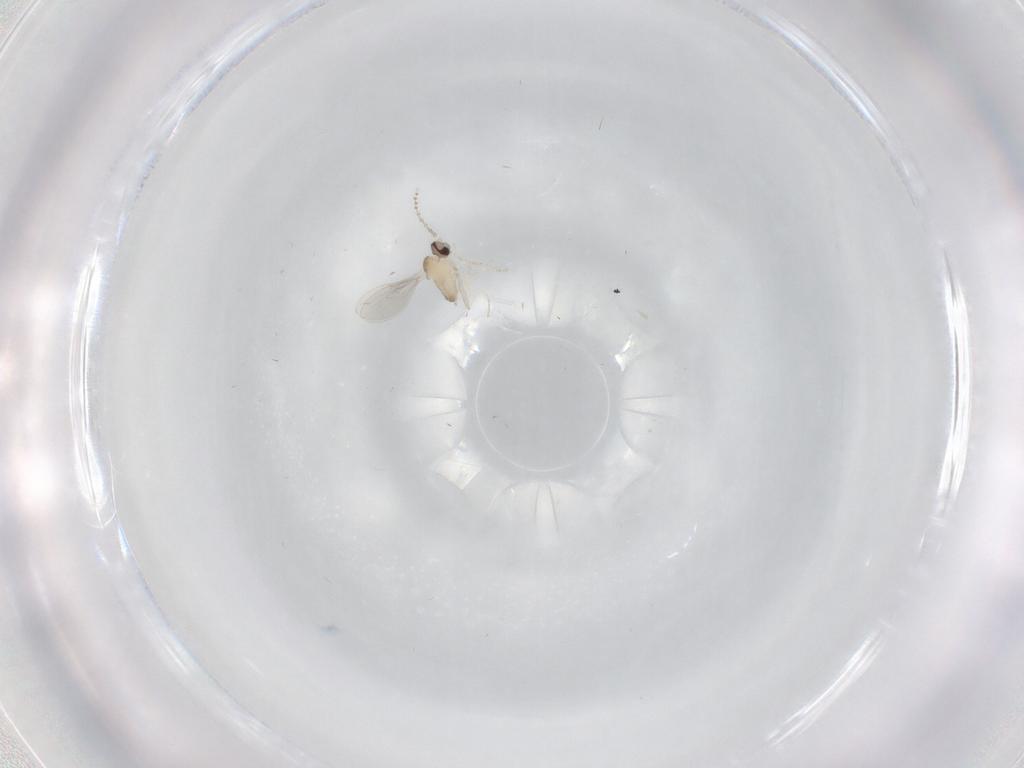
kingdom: Animalia
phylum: Arthropoda
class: Insecta
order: Diptera
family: Cecidomyiidae
